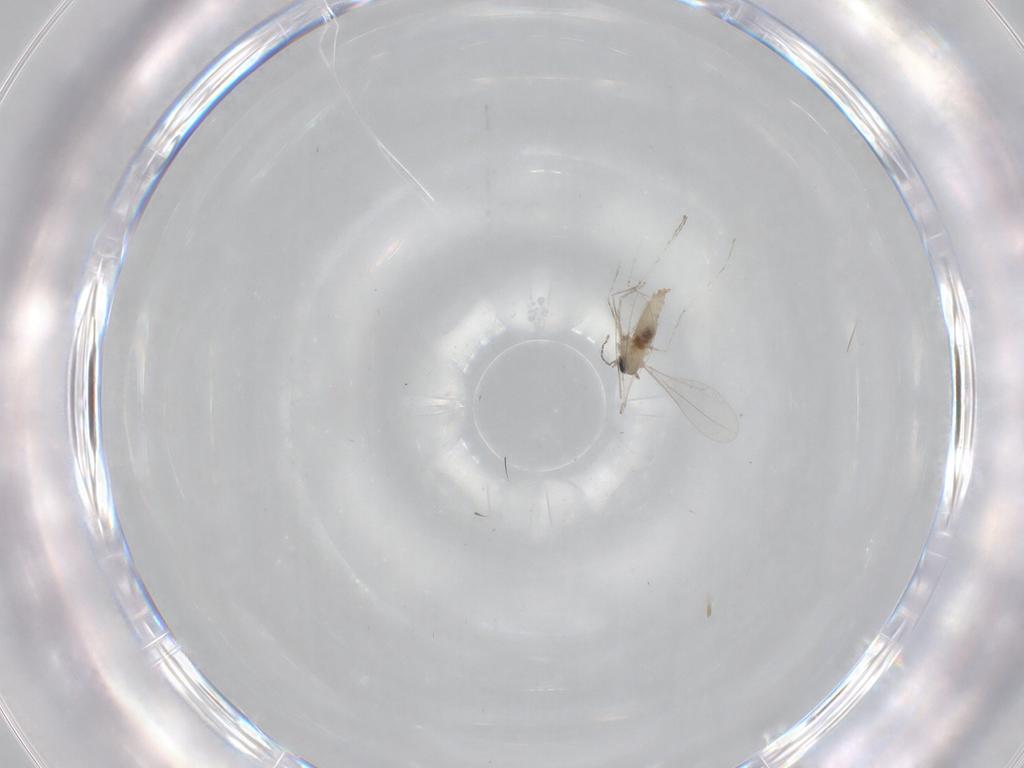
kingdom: Animalia
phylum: Arthropoda
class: Insecta
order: Diptera
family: Cecidomyiidae
